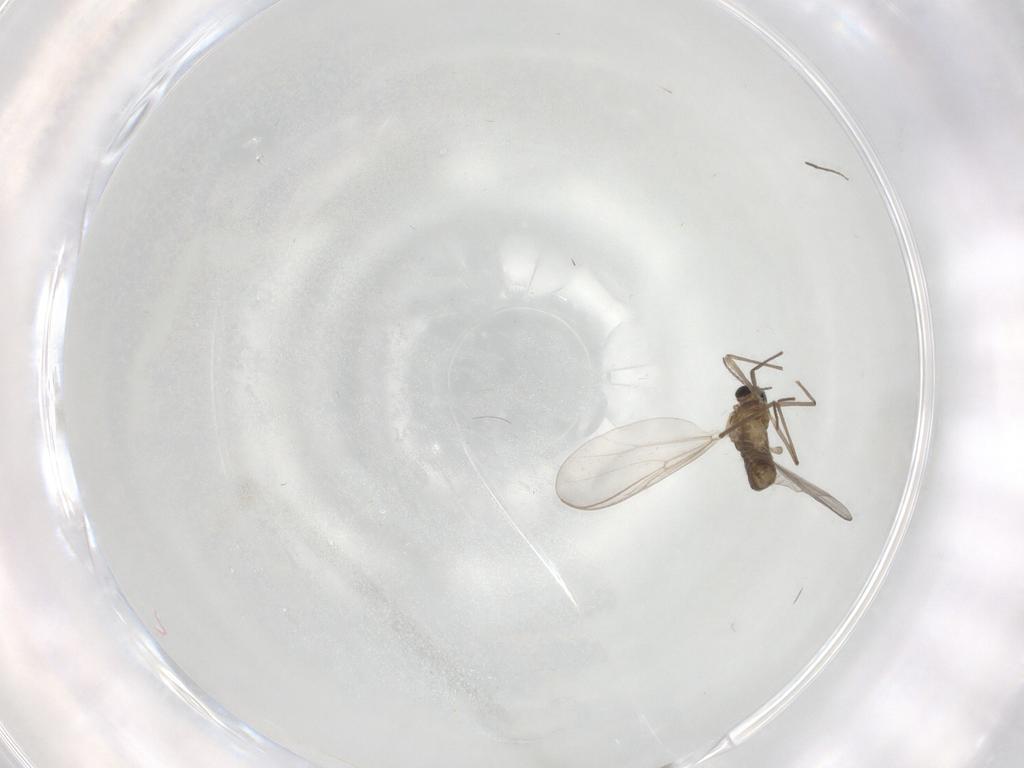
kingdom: Animalia
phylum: Arthropoda
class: Insecta
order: Diptera
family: Chironomidae
